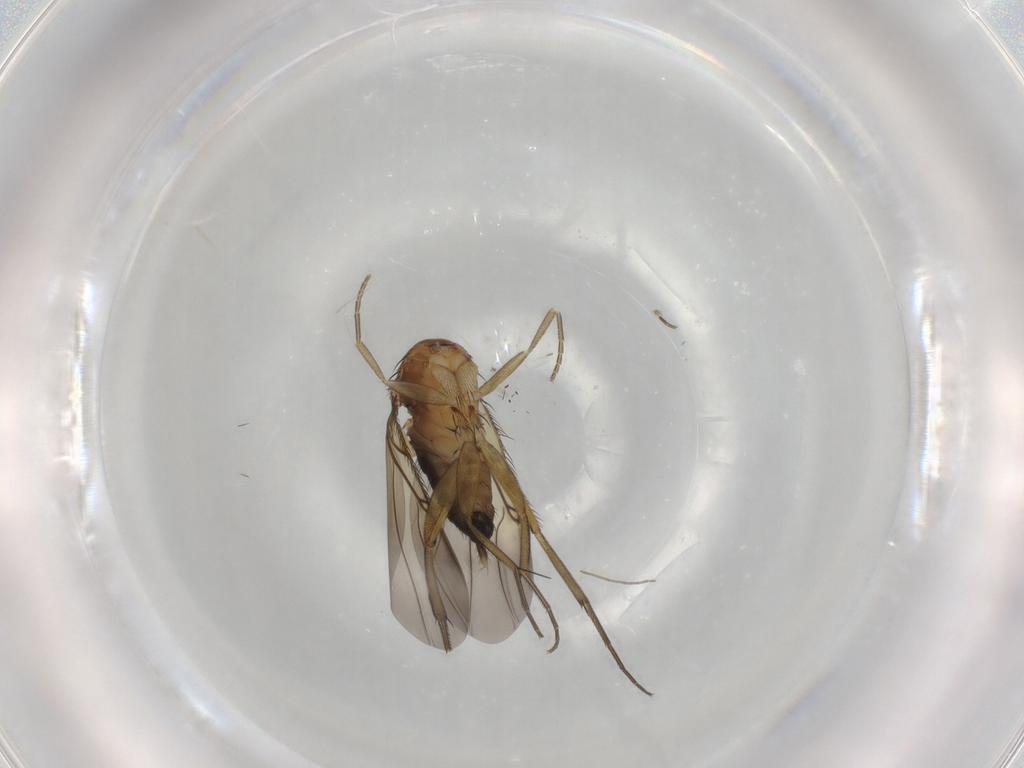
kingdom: Animalia
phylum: Arthropoda
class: Insecta
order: Diptera
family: Phoridae
